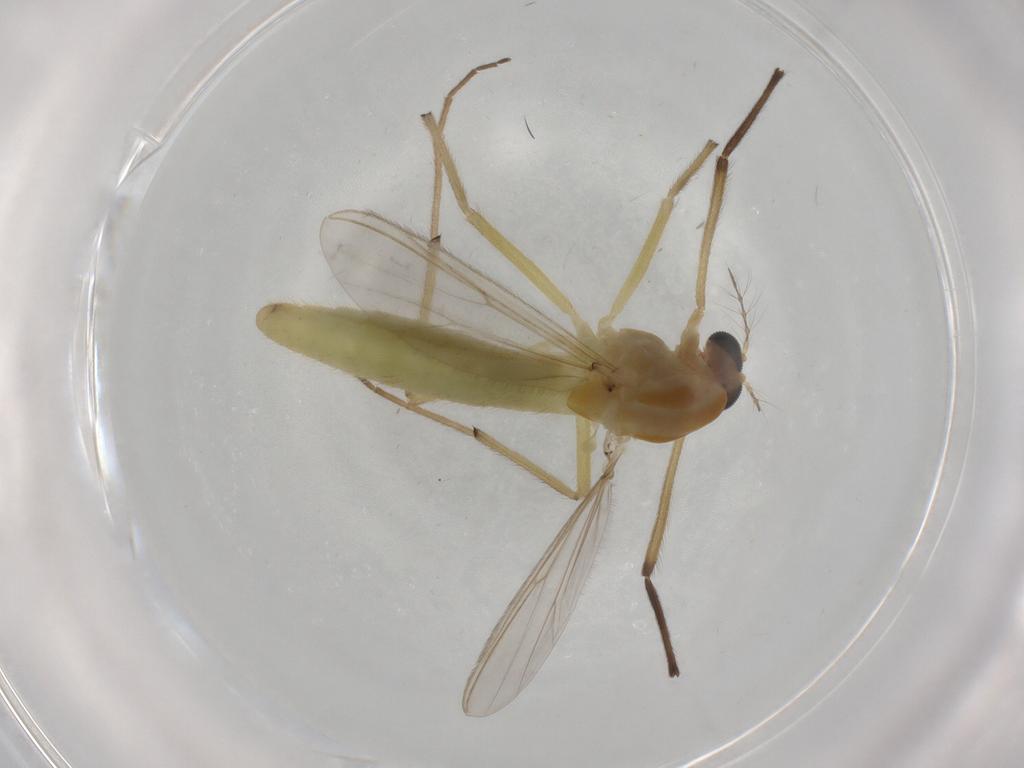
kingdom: Animalia
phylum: Arthropoda
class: Insecta
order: Diptera
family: Chironomidae
